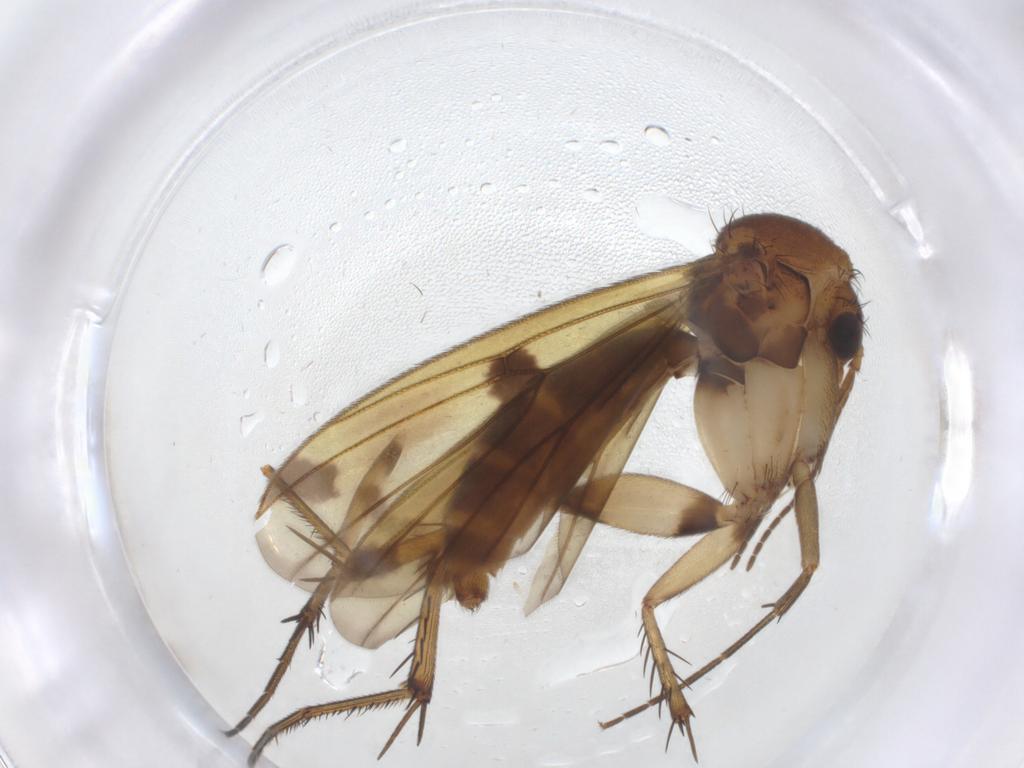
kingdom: Animalia
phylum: Arthropoda
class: Insecta
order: Diptera
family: Mycetophilidae
